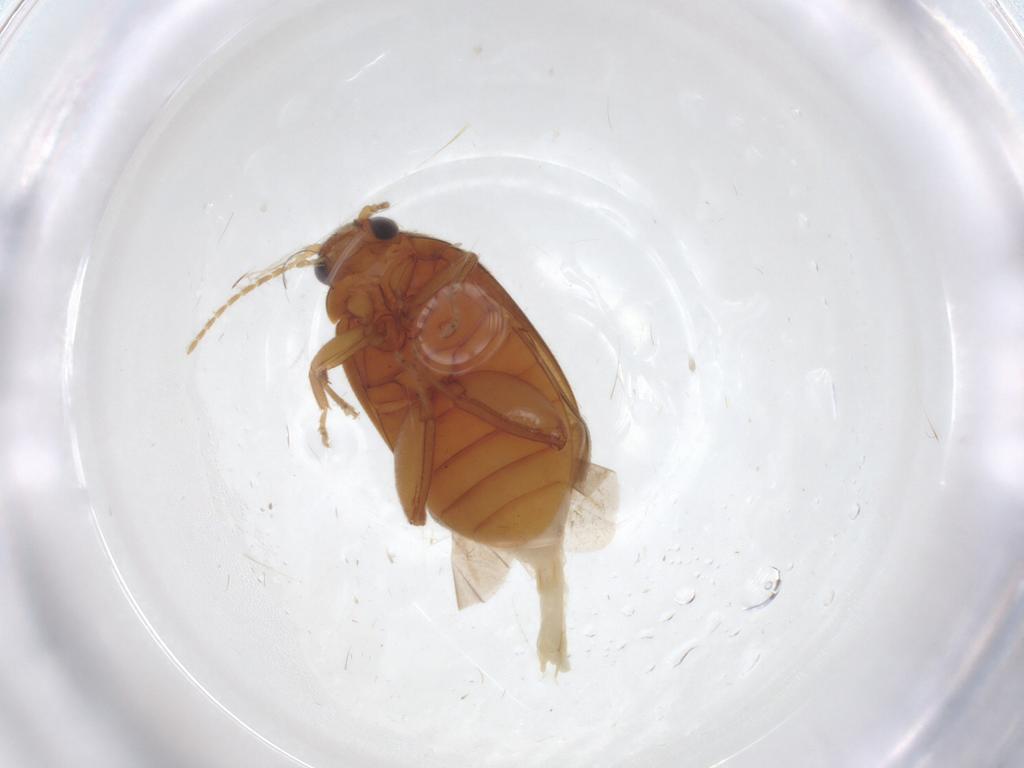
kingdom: Animalia
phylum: Arthropoda
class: Insecta
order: Coleoptera
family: Scirtidae
